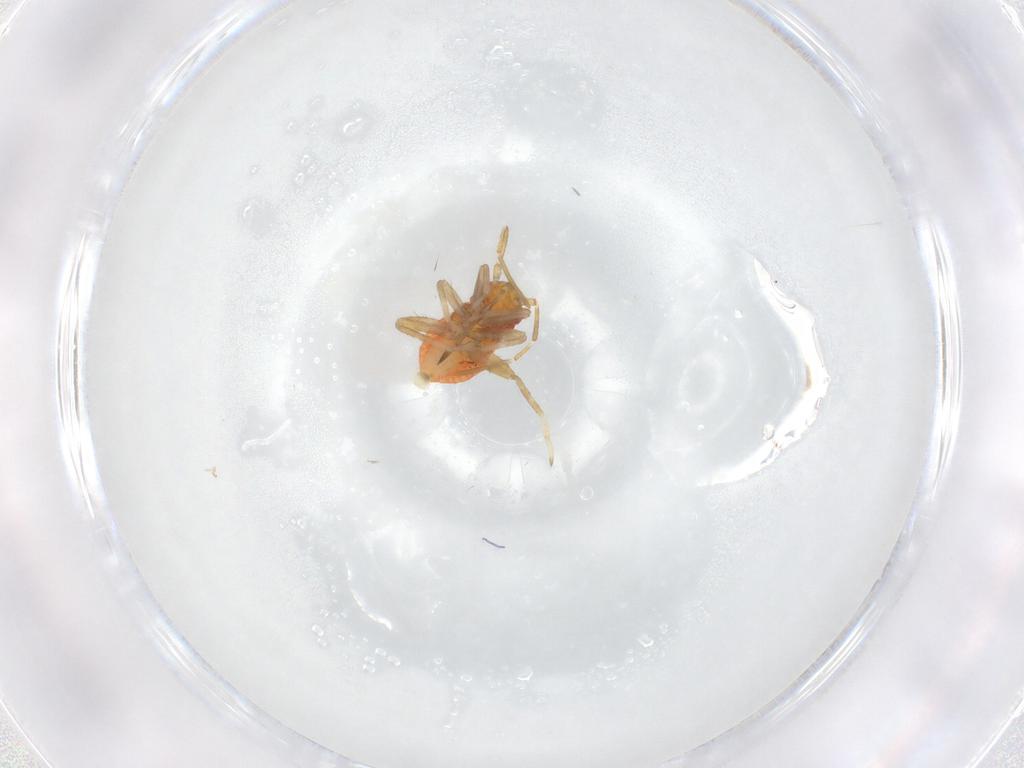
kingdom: Animalia
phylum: Arthropoda
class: Insecta
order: Hemiptera
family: Miridae
